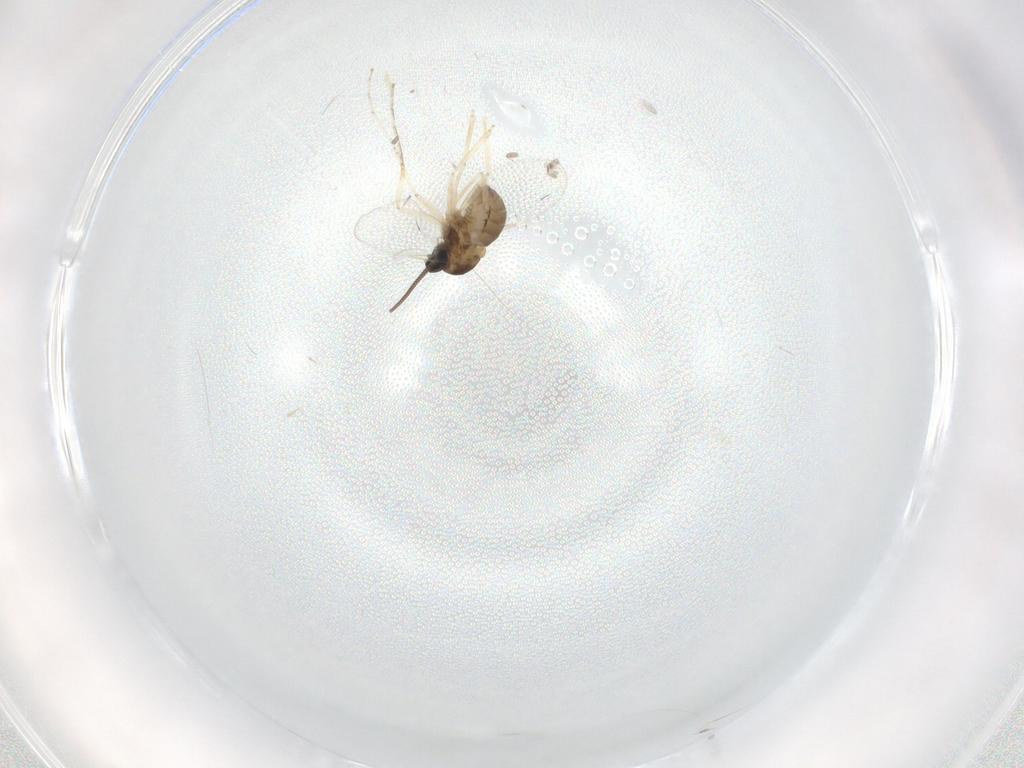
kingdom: Animalia
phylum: Arthropoda
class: Insecta
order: Diptera
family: Cecidomyiidae
